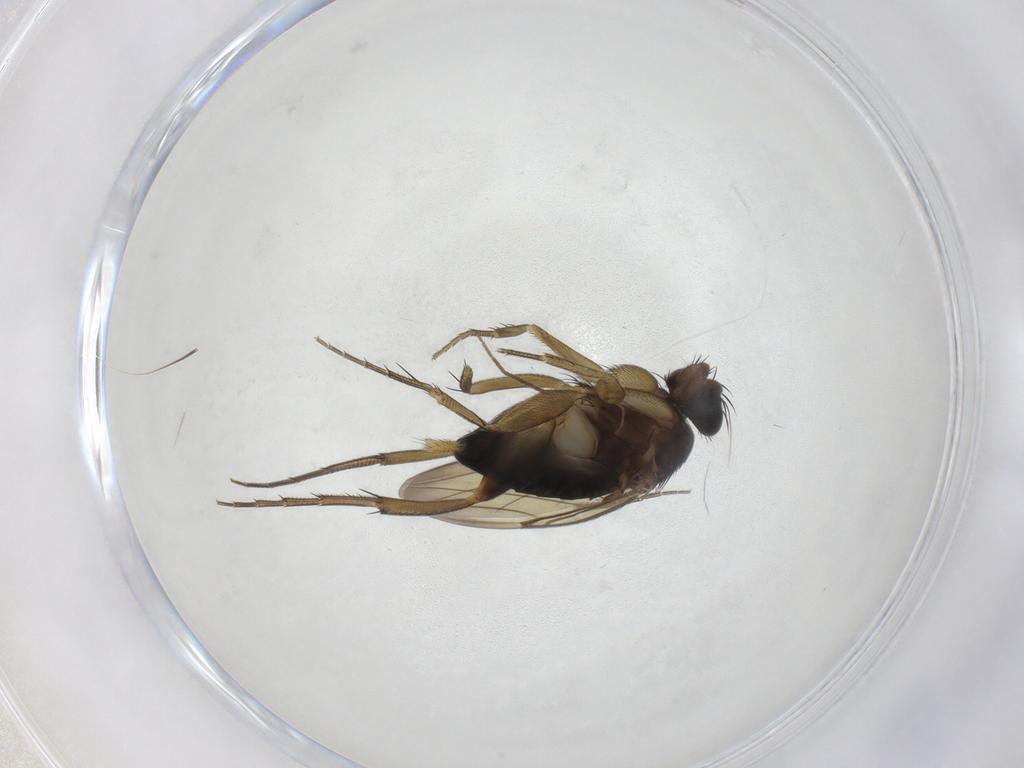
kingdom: Animalia
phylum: Arthropoda
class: Insecta
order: Diptera
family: Phoridae
